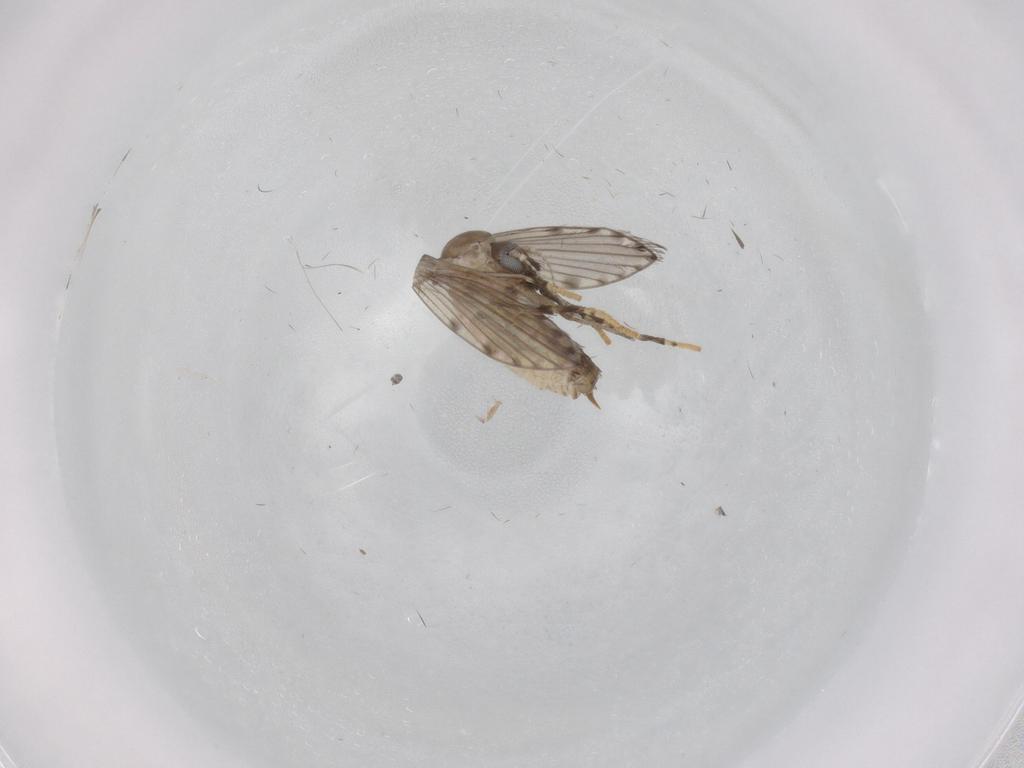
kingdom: Animalia
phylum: Arthropoda
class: Insecta
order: Diptera
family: Psychodidae
